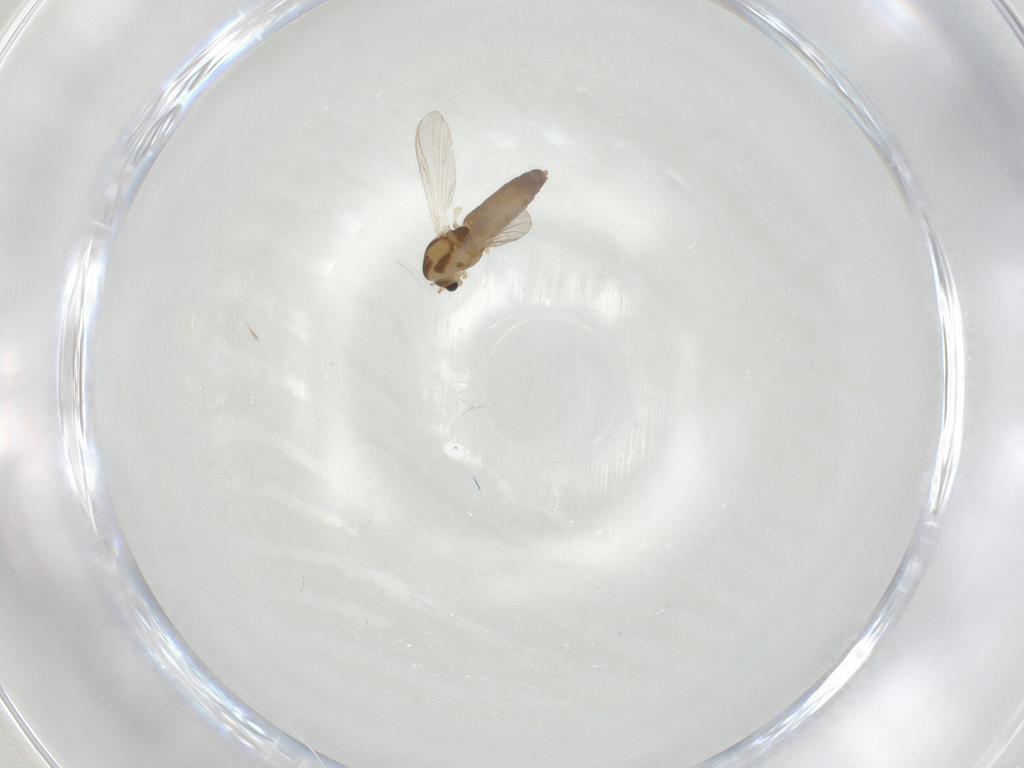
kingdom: Animalia
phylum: Arthropoda
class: Insecta
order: Diptera
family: Chironomidae
